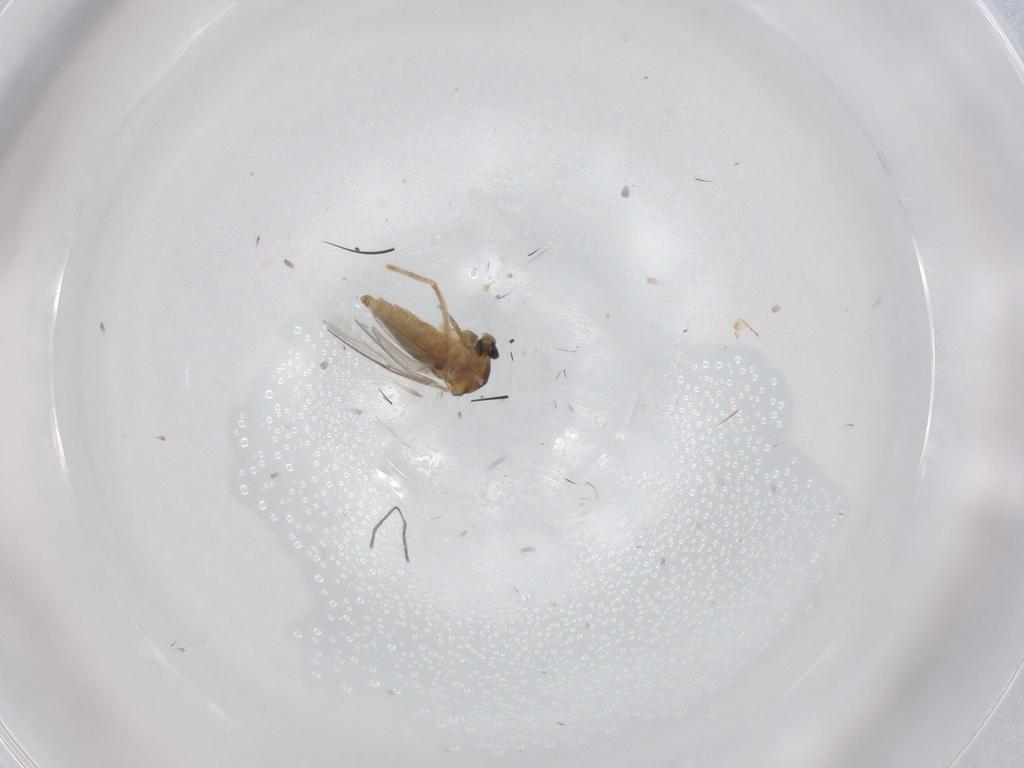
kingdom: Animalia
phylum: Arthropoda
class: Insecta
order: Diptera
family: Glossinidae
